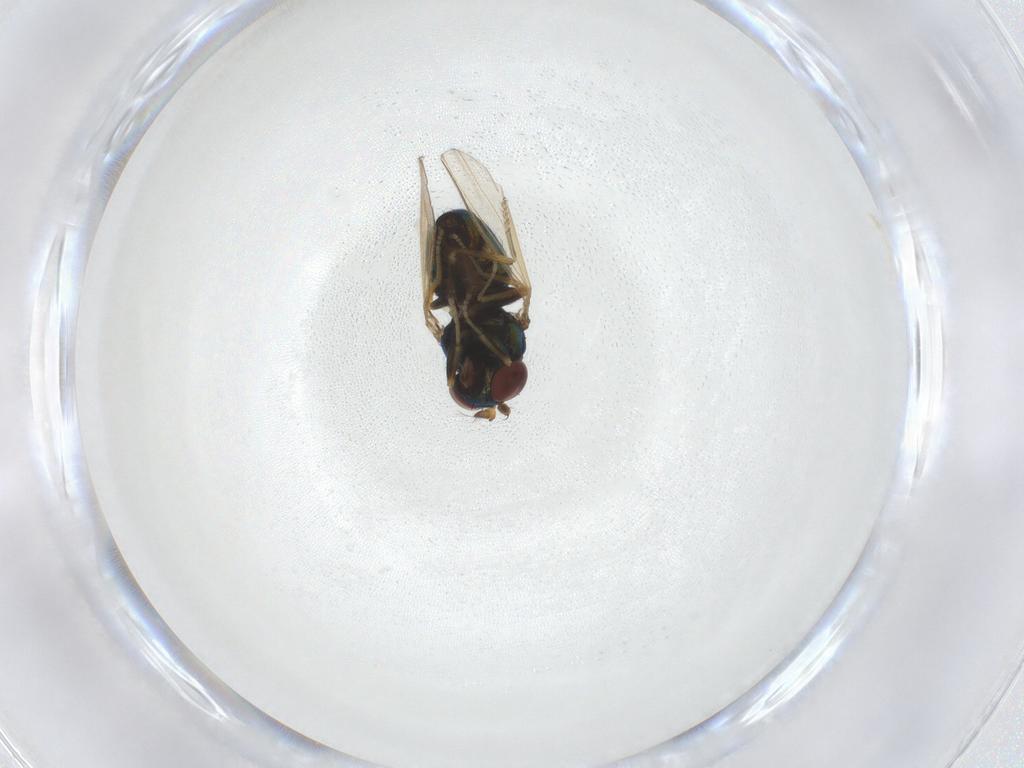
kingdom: Animalia
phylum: Arthropoda
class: Insecta
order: Diptera
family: Ephydridae
